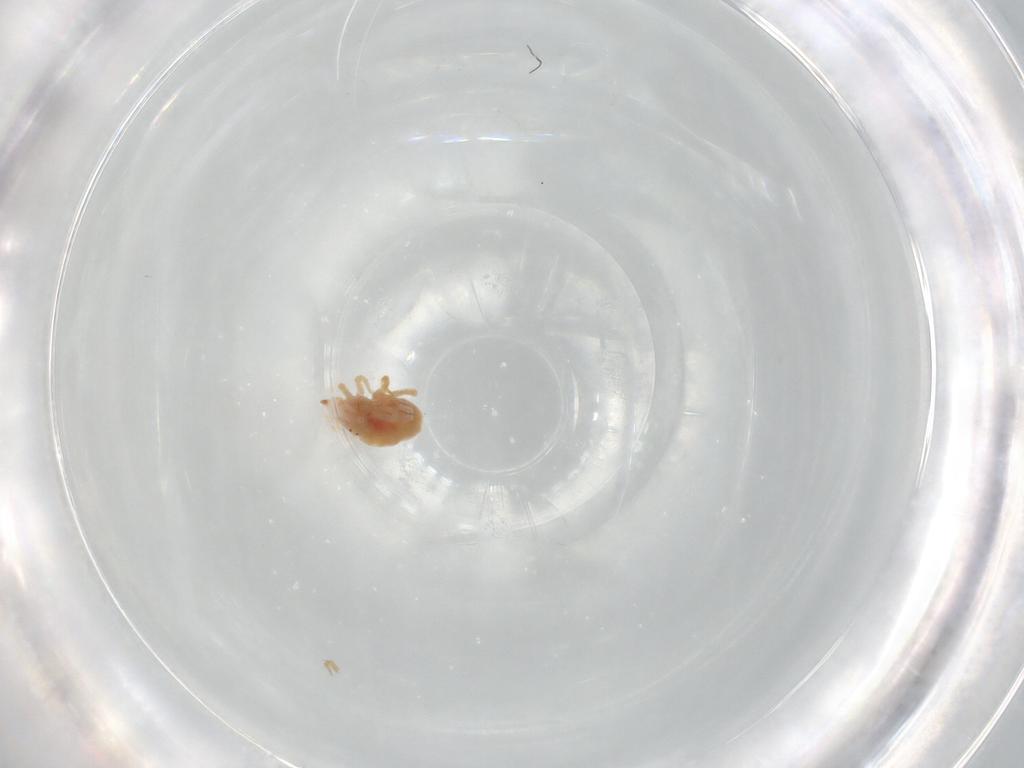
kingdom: Animalia
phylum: Arthropoda
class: Arachnida
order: Trombidiformes
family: Bdellidae
